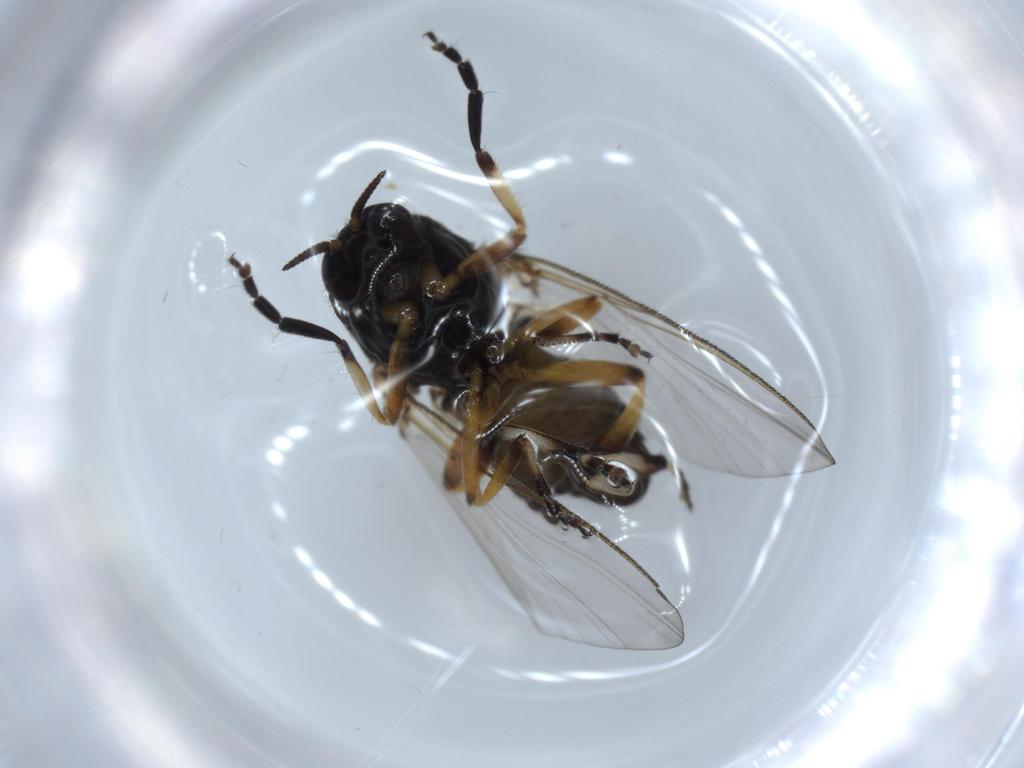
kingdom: Animalia
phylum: Arthropoda
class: Insecta
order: Diptera
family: Ceratopogonidae
